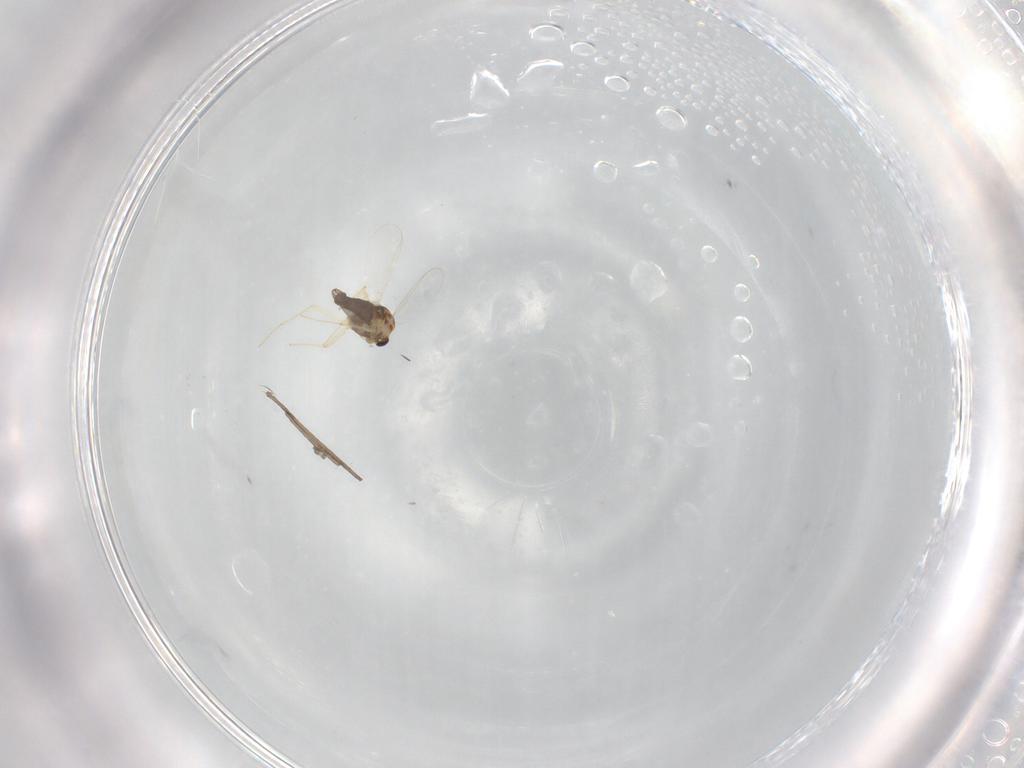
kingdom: Animalia
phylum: Arthropoda
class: Insecta
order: Diptera
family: Chironomidae
